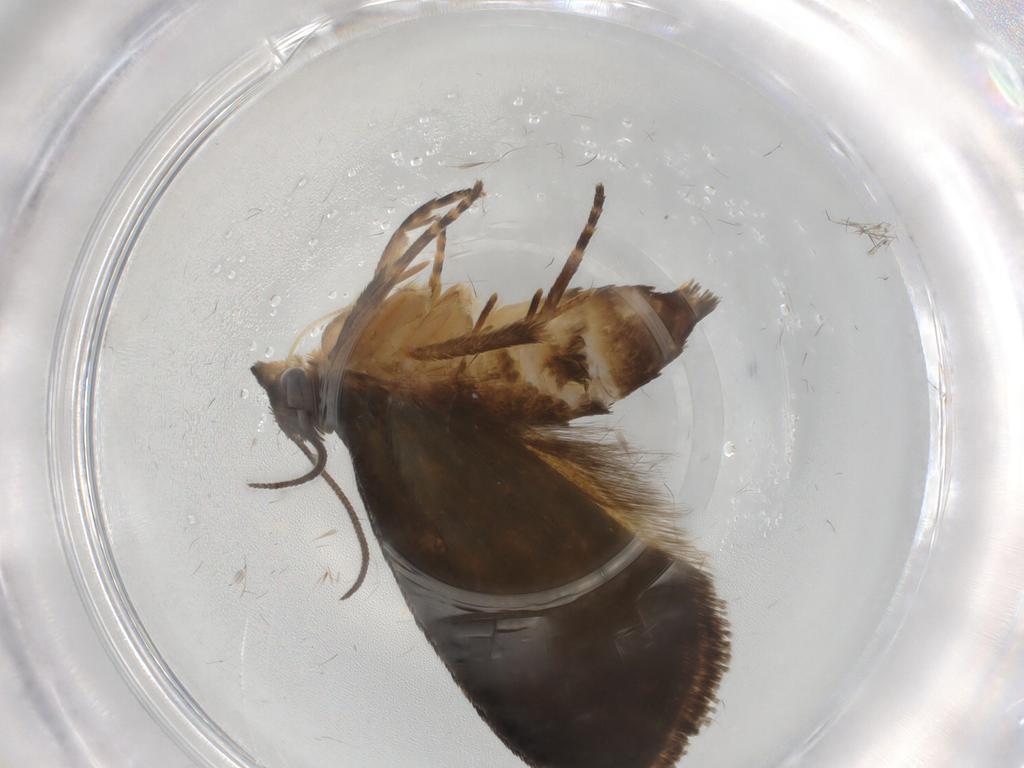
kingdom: Animalia
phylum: Arthropoda
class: Insecta
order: Lepidoptera
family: Tortricidae
